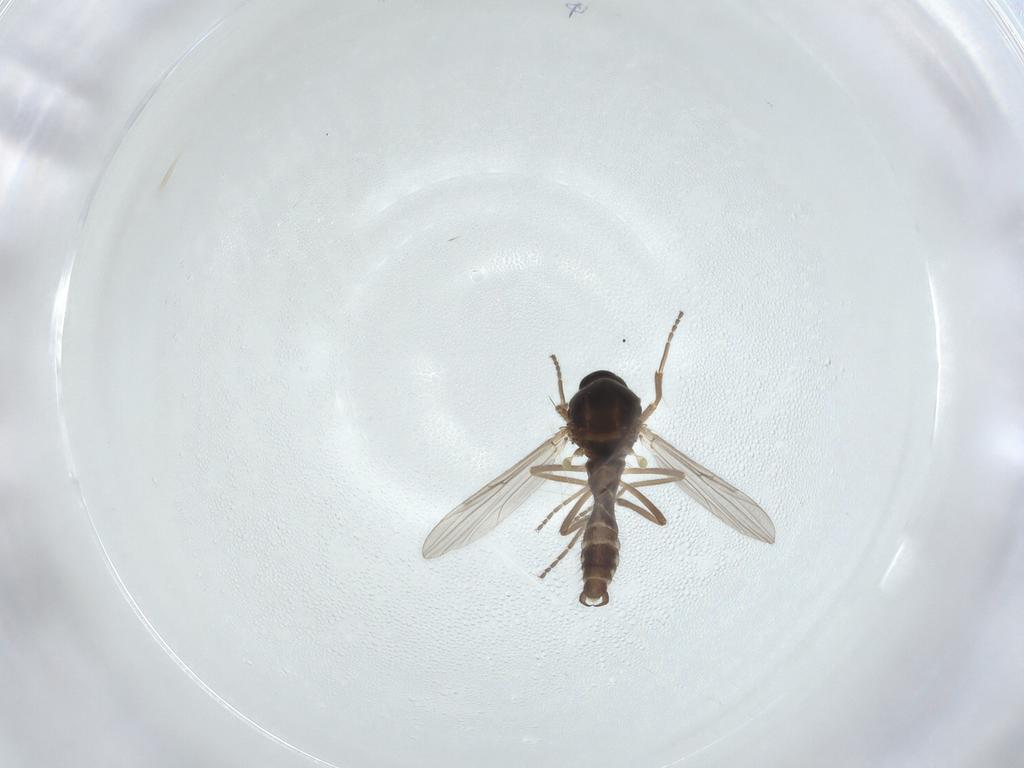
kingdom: Animalia
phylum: Arthropoda
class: Insecta
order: Diptera
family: Ceratopogonidae
